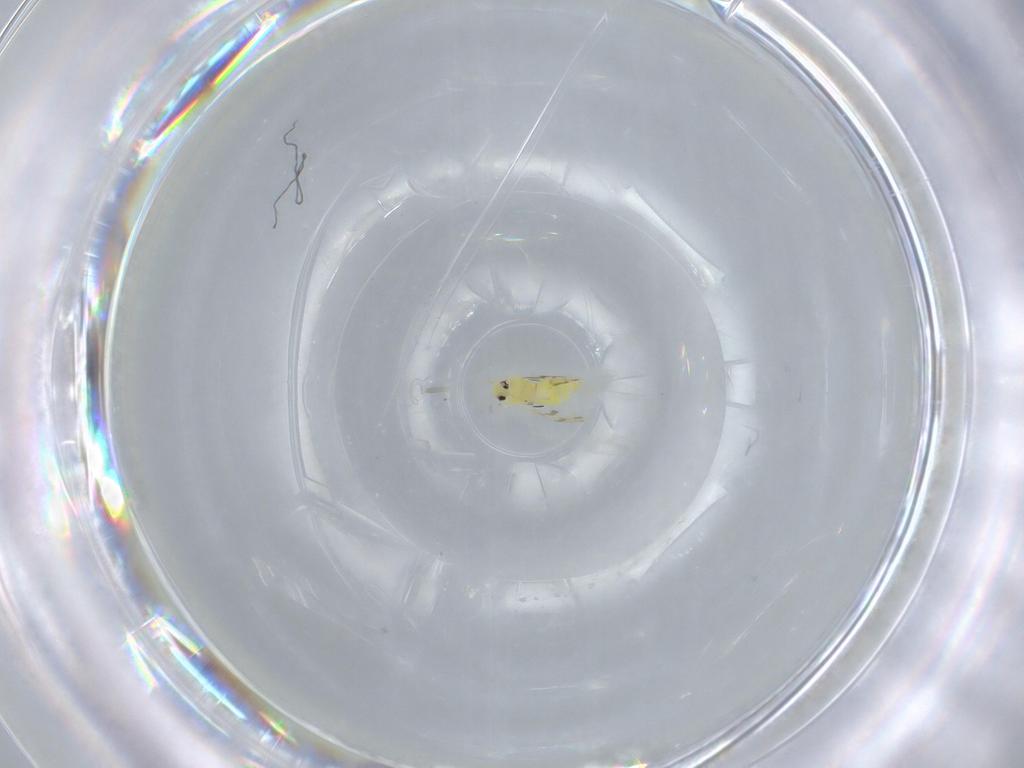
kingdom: Animalia
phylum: Arthropoda
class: Insecta
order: Hemiptera
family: Aleyrodidae
